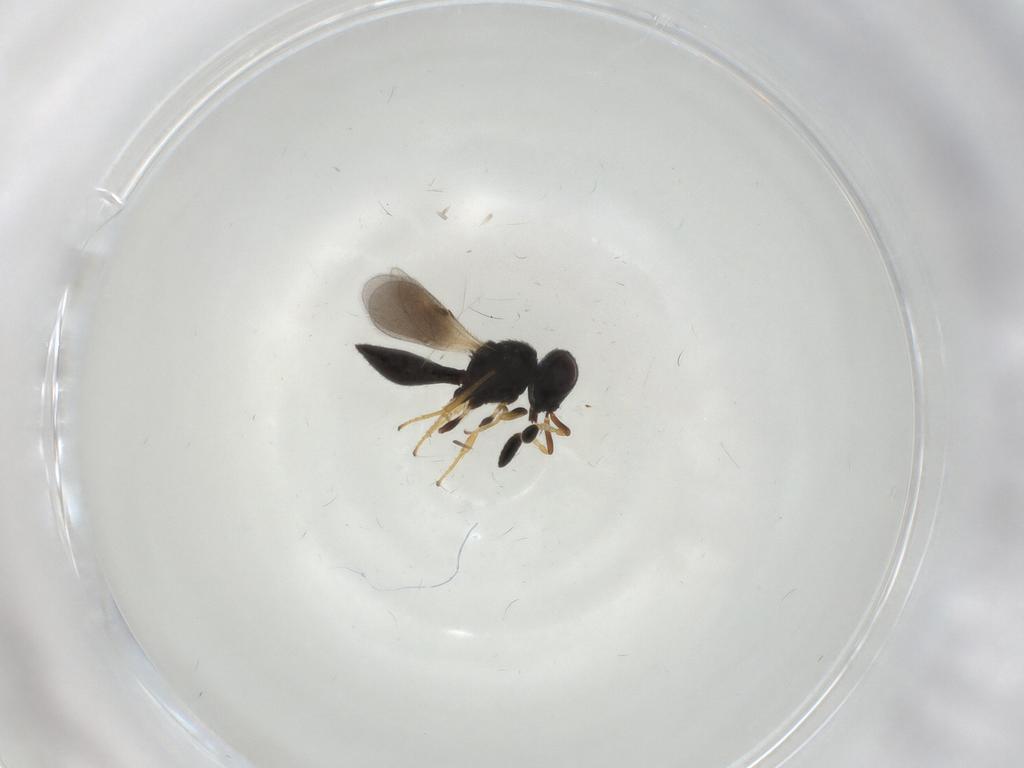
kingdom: Animalia
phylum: Arthropoda
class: Insecta
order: Hymenoptera
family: Scelionidae
